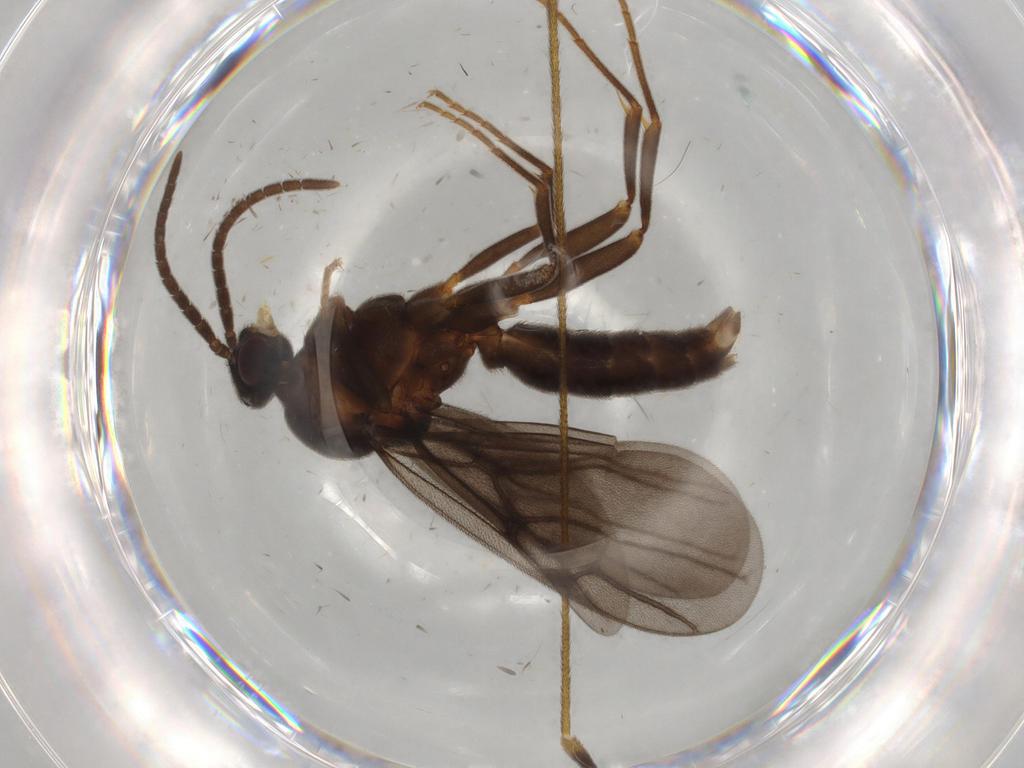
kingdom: Animalia
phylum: Arthropoda
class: Insecta
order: Hymenoptera
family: Formicidae
